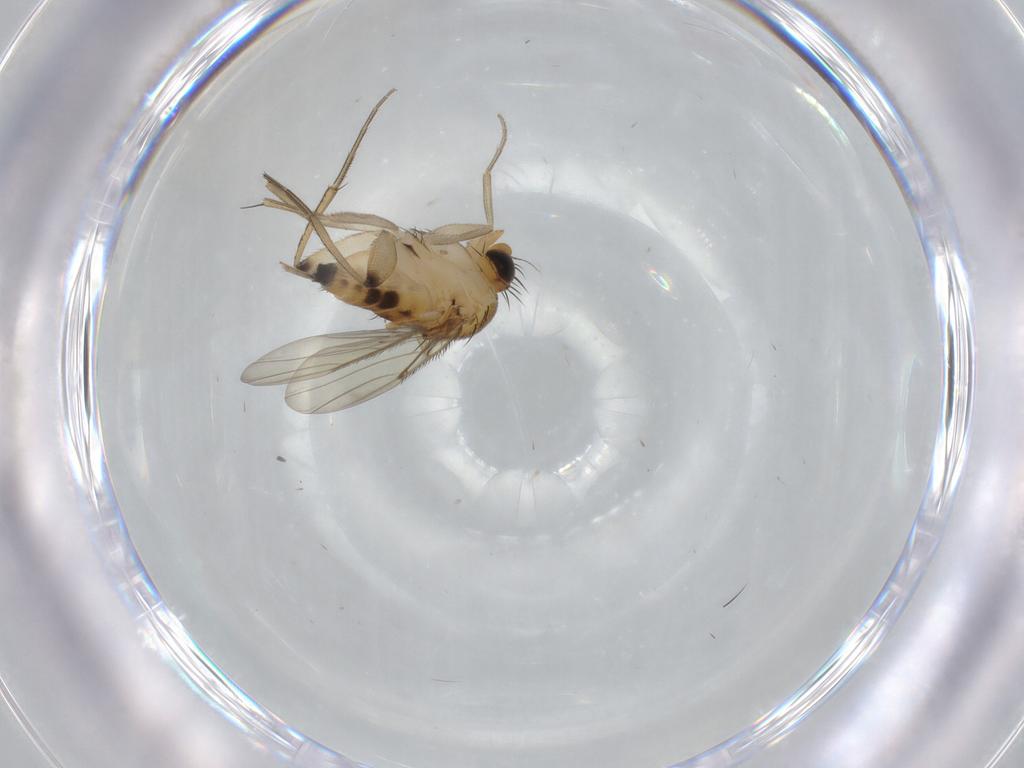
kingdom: Animalia
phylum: Arthropoda
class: Insecta
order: Diptera
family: Phoridae
